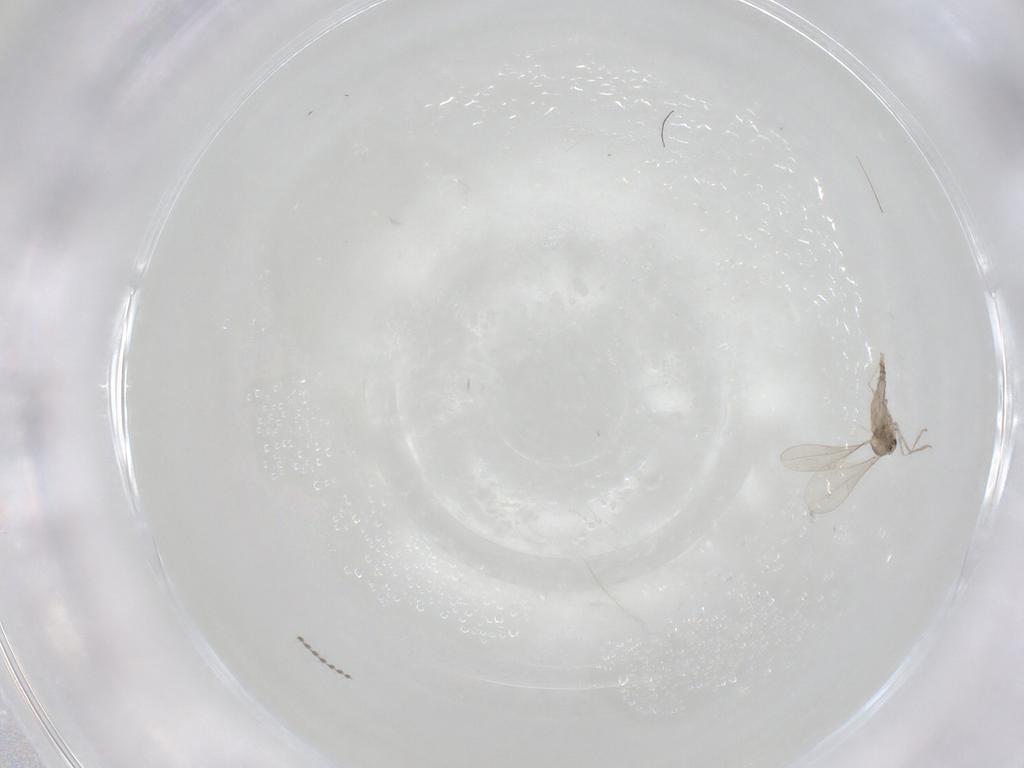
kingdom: Animalia
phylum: Arthropoda
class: Insecta
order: Diptera
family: Cecidomyiidae
